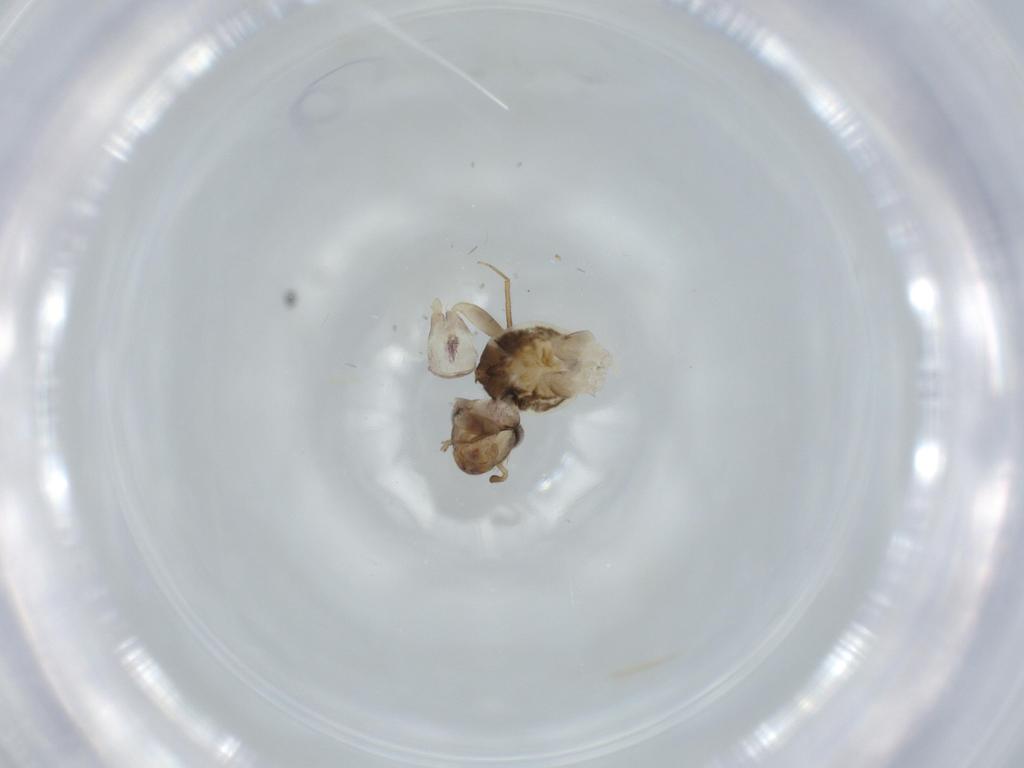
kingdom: Animalia
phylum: Arthropoda
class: Insecta
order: Psocodea
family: Lepidopsocidae
